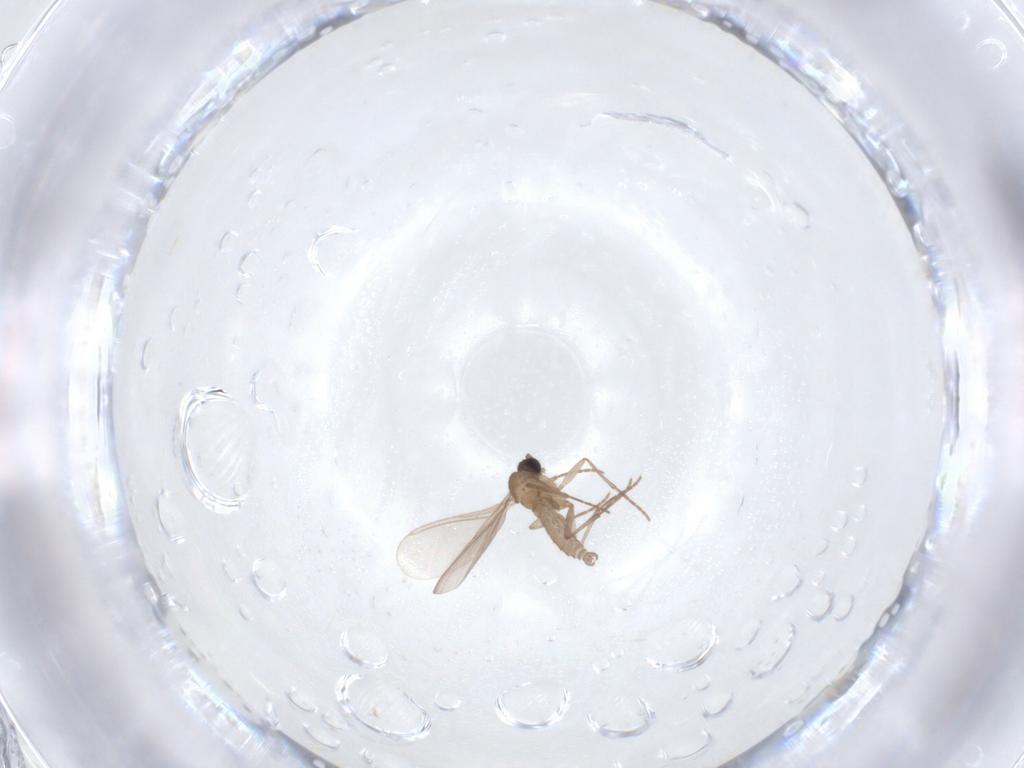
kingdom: Animalia
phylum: Arthropoda
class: Insecta
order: Diptera
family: Sciaridae
